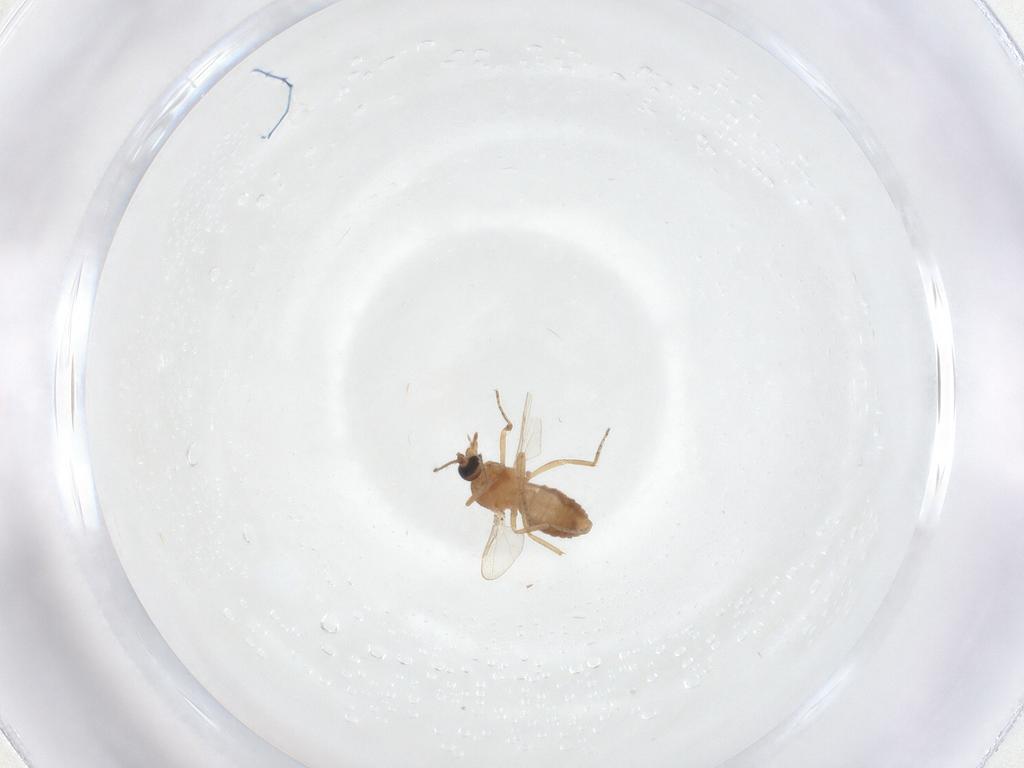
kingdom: Animalia
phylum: Arthropoda
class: Insecta
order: Diptera
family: Ceratopogonidae
